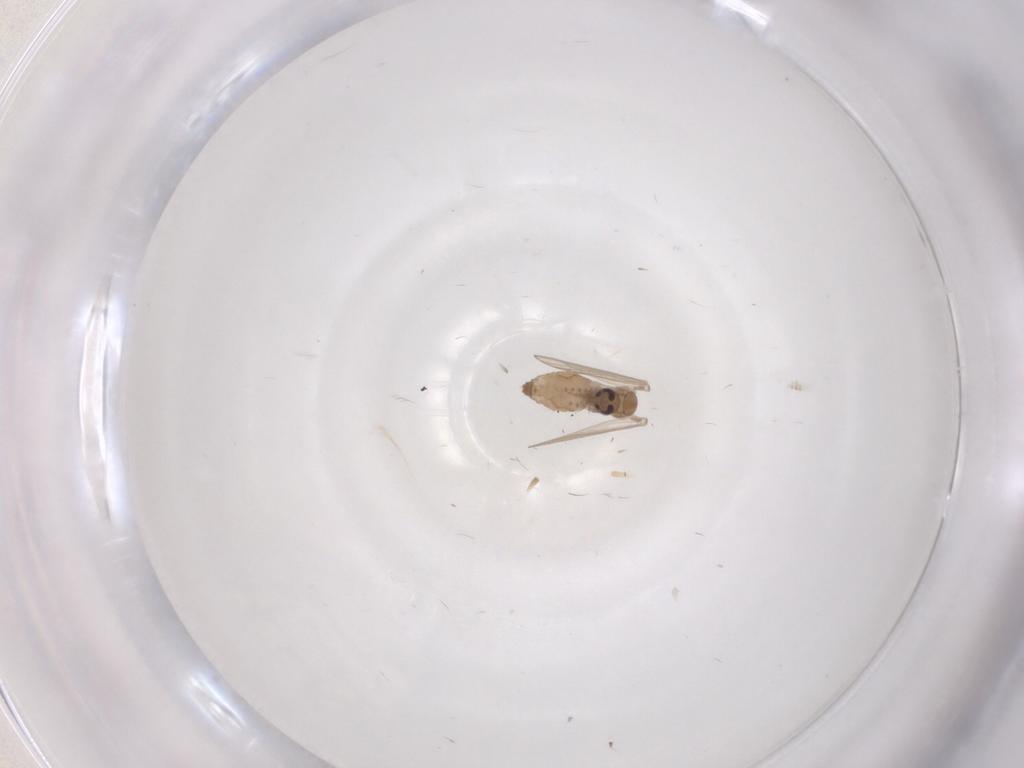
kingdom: Animalia
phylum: Arthropoda
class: Insecta
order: Diptera
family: Psychodidae
